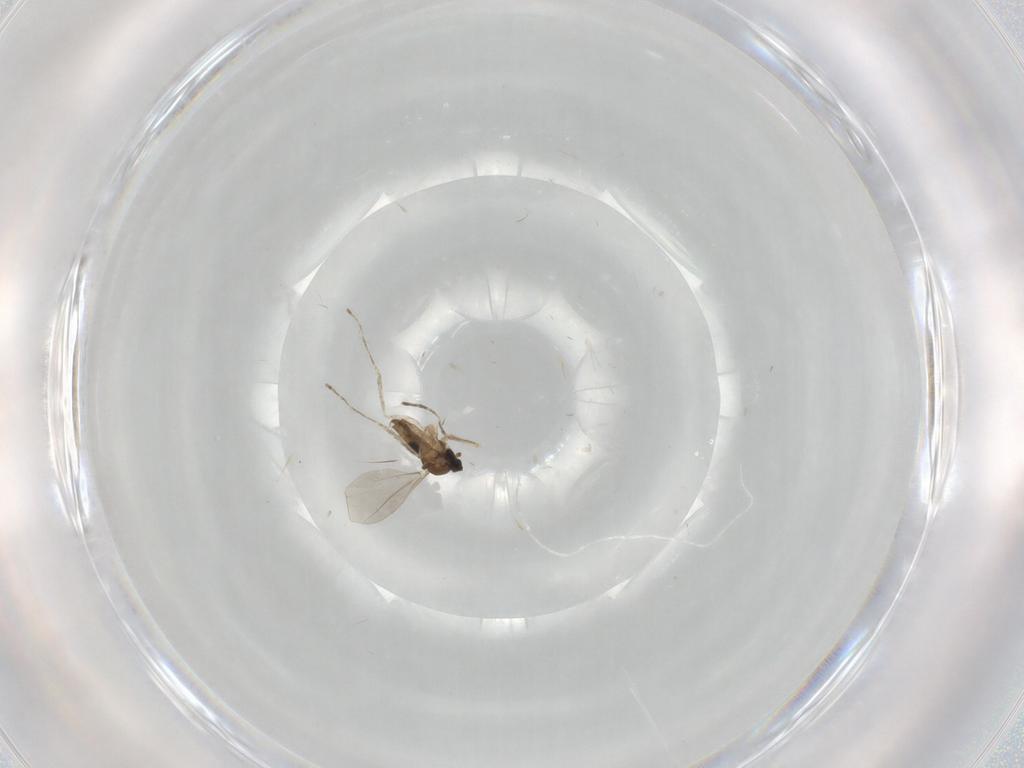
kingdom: Animalia
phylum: Arthropoda
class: Insecta
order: Diptera
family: Cecidomyiidae
